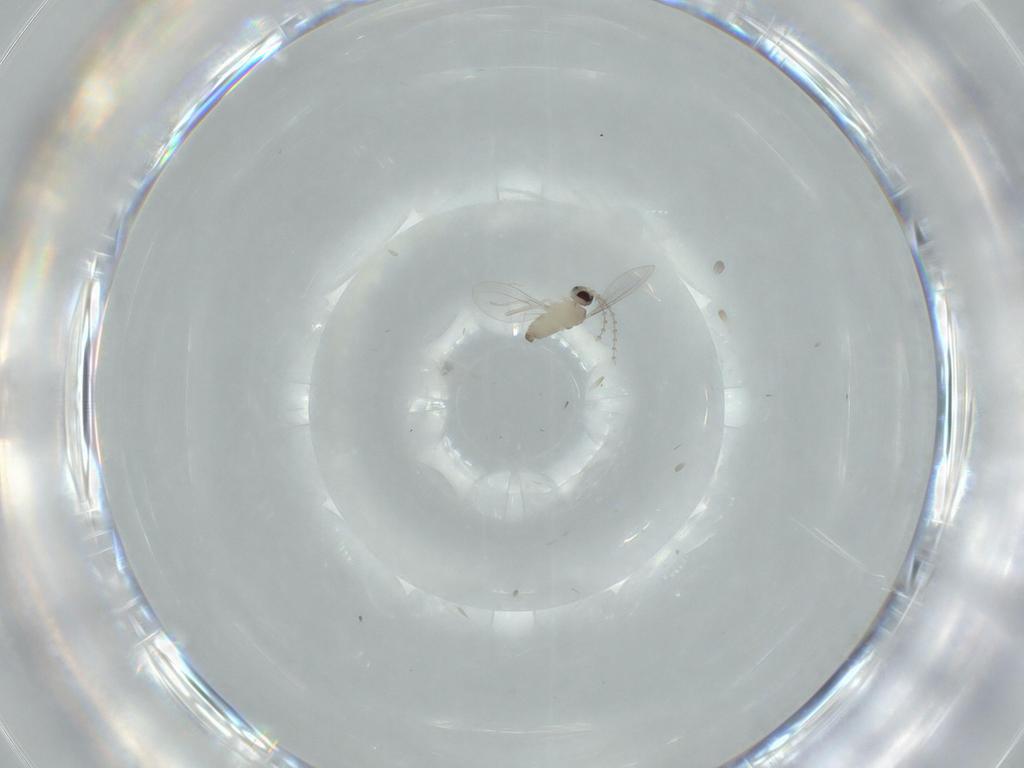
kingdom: Animalia
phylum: Arthropoda
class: Insecta
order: Diptera
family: Cecidomyiidae
